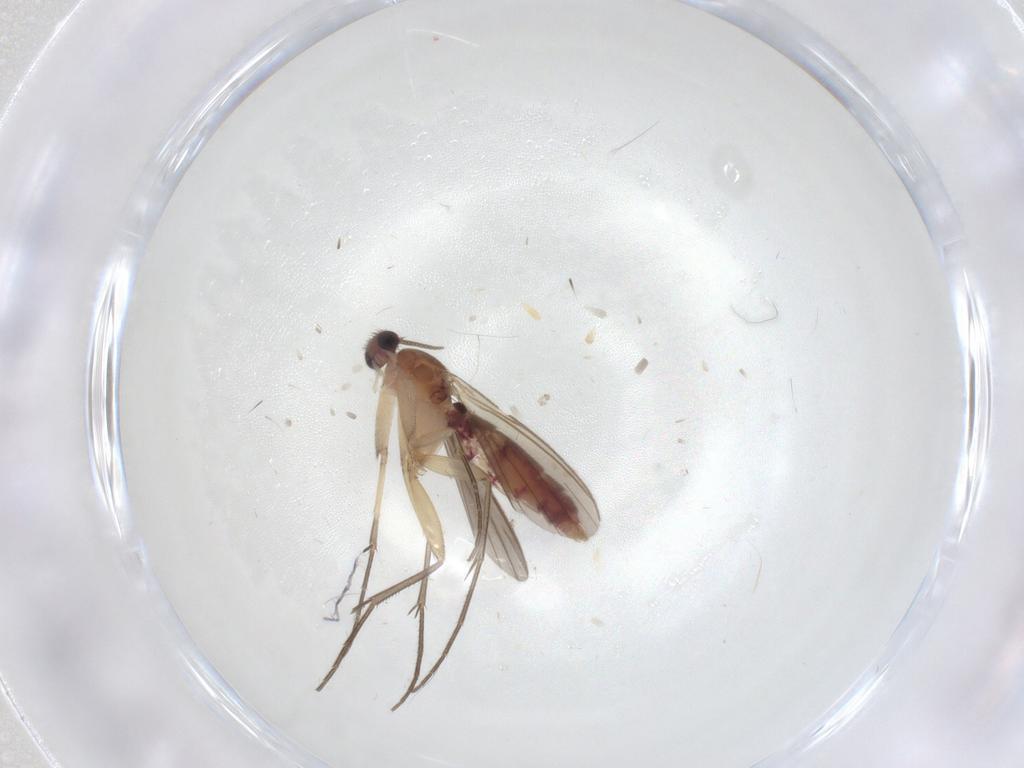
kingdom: Animalia
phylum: Arthropoda
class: Insecta
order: Diptera
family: Mycetophilidae
